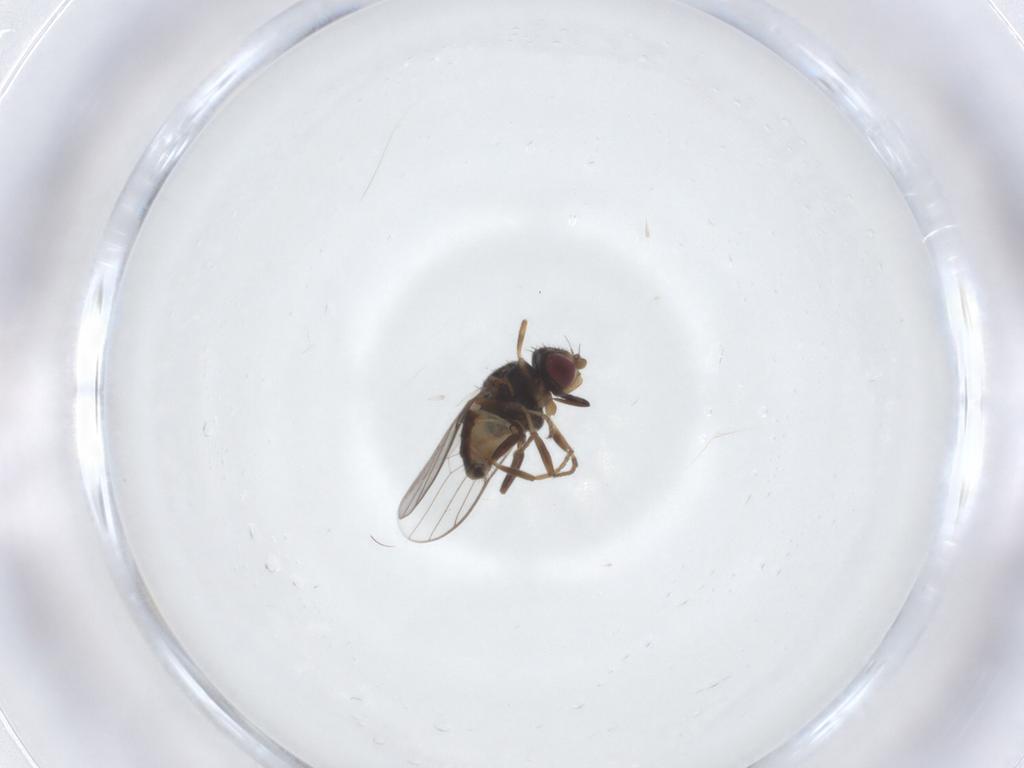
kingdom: Animalia
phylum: Arthropoda
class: Insecta
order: Diptera
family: Chloropidae
